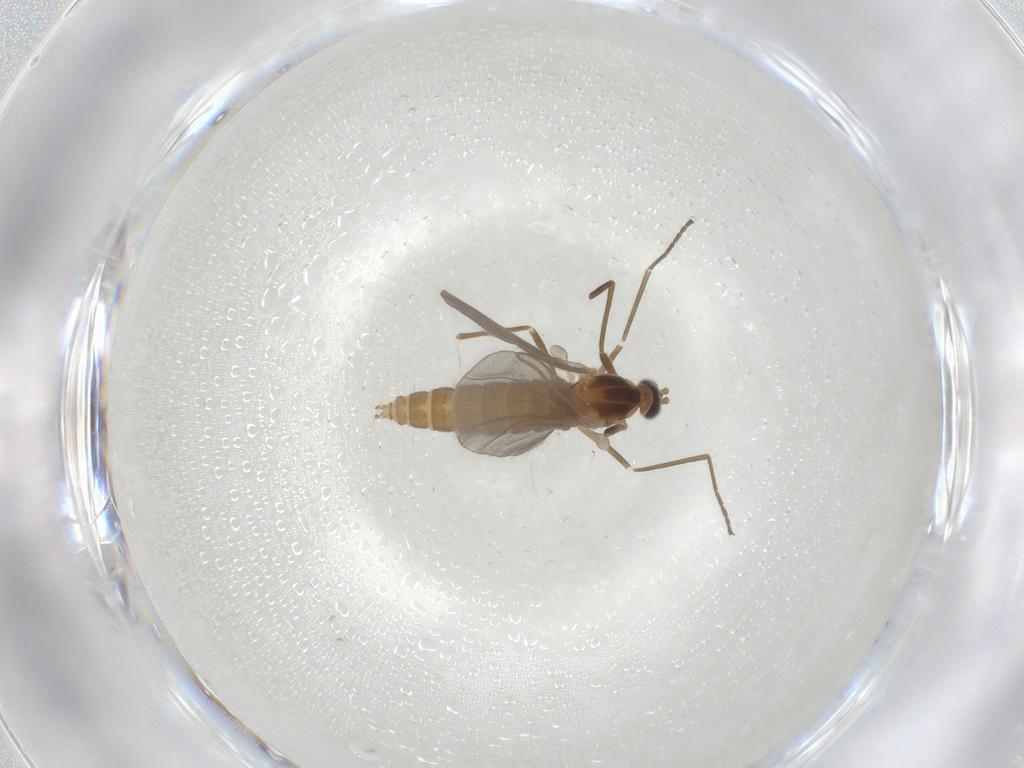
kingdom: Animalia
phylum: Arthropoda
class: Insecta
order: Diptera
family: Cecidomyiidae
